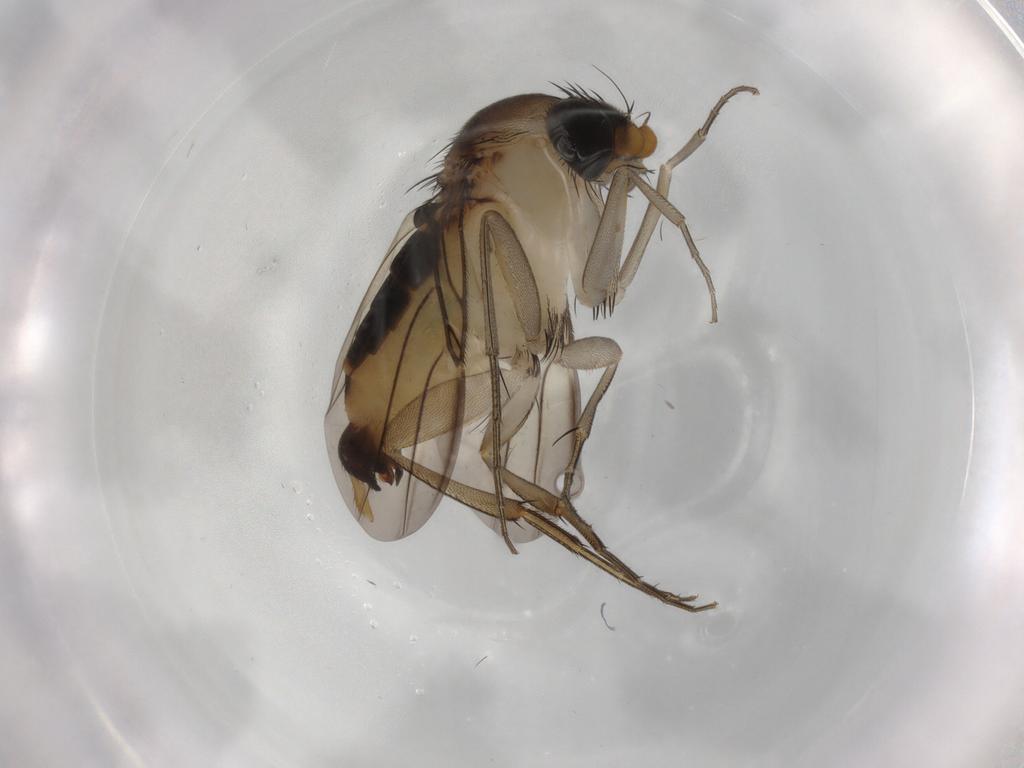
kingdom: Animalia
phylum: Arthropoda
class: Insecta
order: Diptera
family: Phoridae
